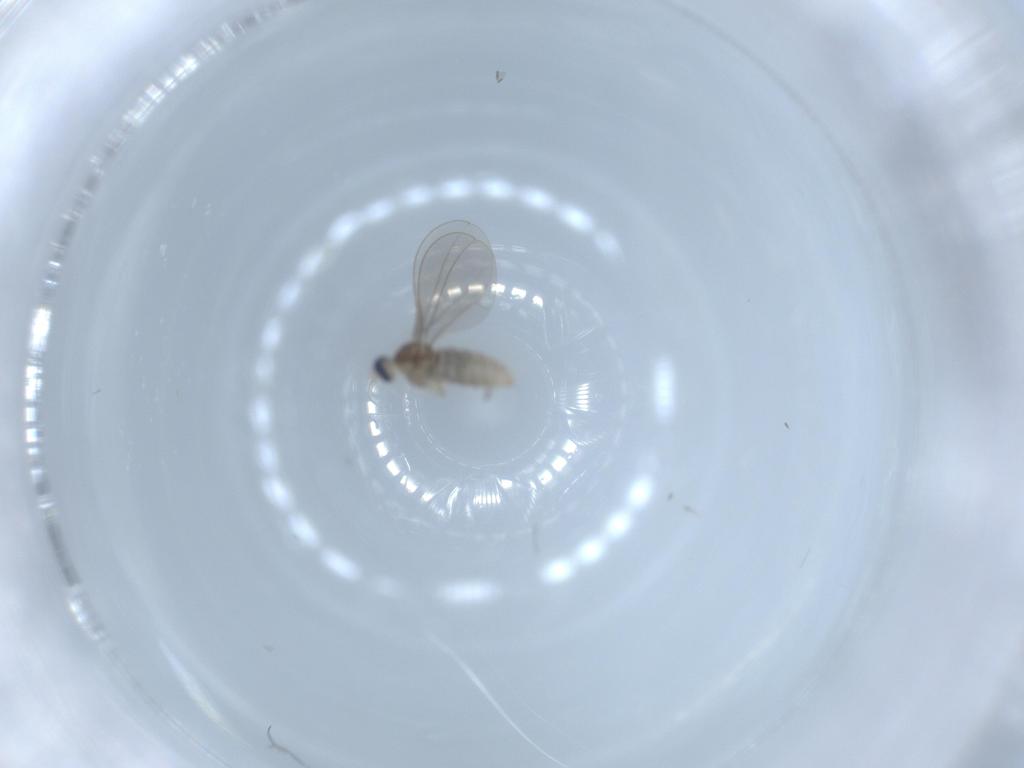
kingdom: Animalia
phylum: Arthropoda
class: Insecta
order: Diptera
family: Cecidomyiidae
